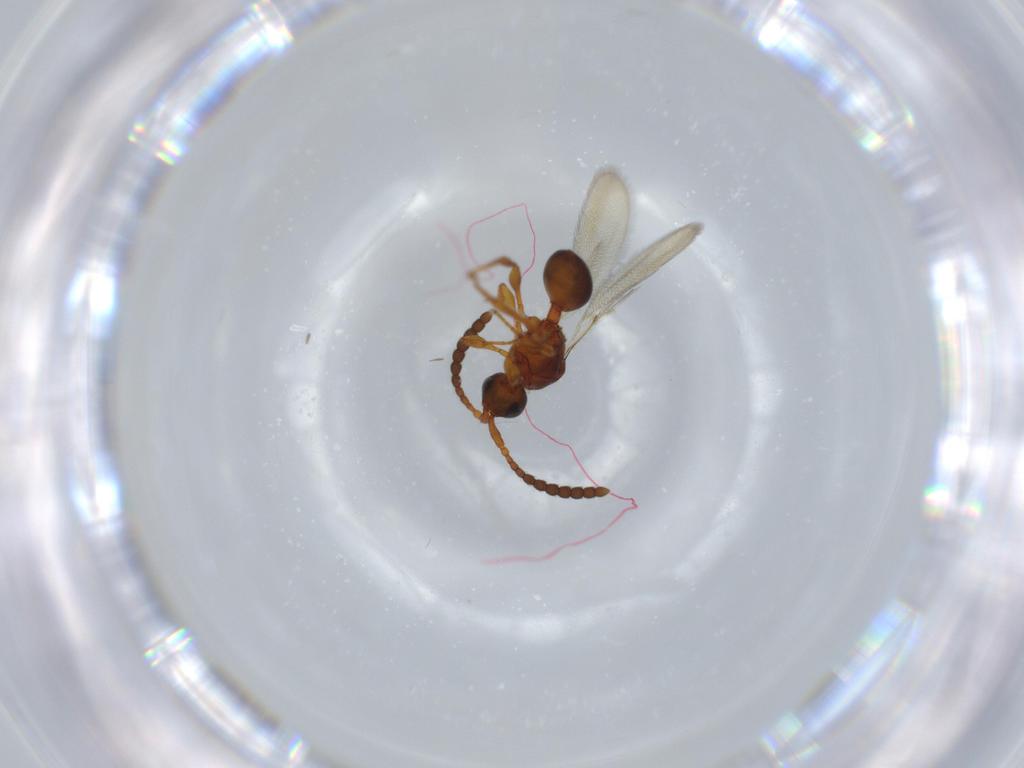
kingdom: Animalia
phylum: Arthropoda
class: Insecta
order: Hymenoptera
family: Diapriidae
